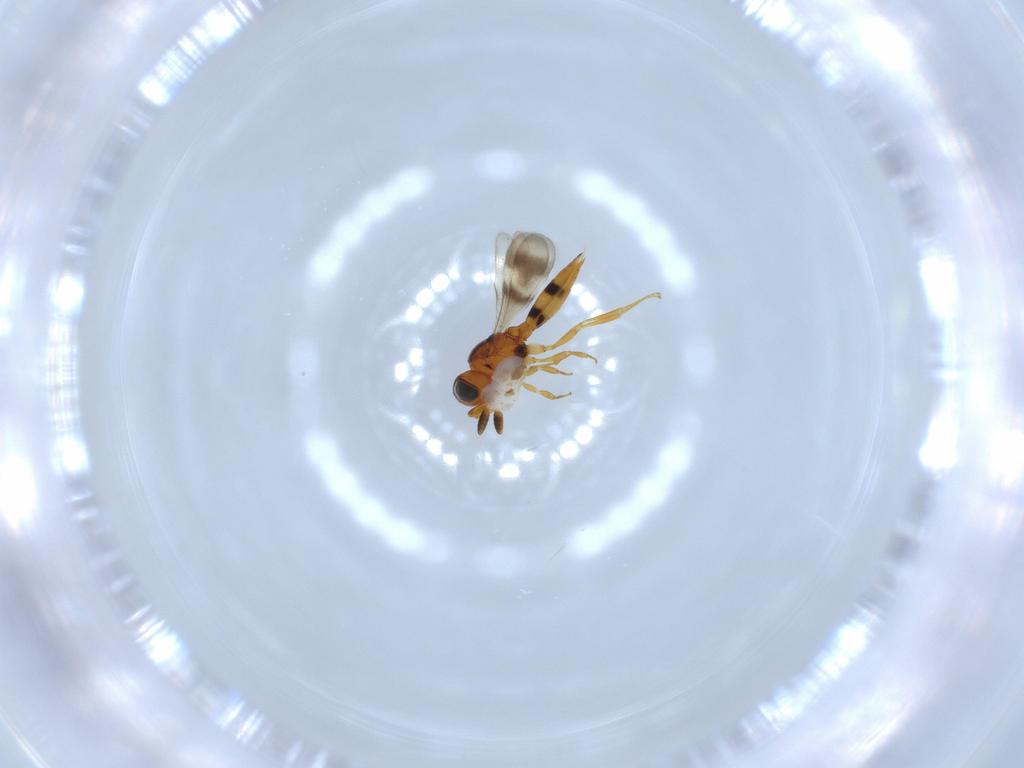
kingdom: Animalia
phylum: Arthropoda
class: Insecta
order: Hymenoptera
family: Scelionidae
